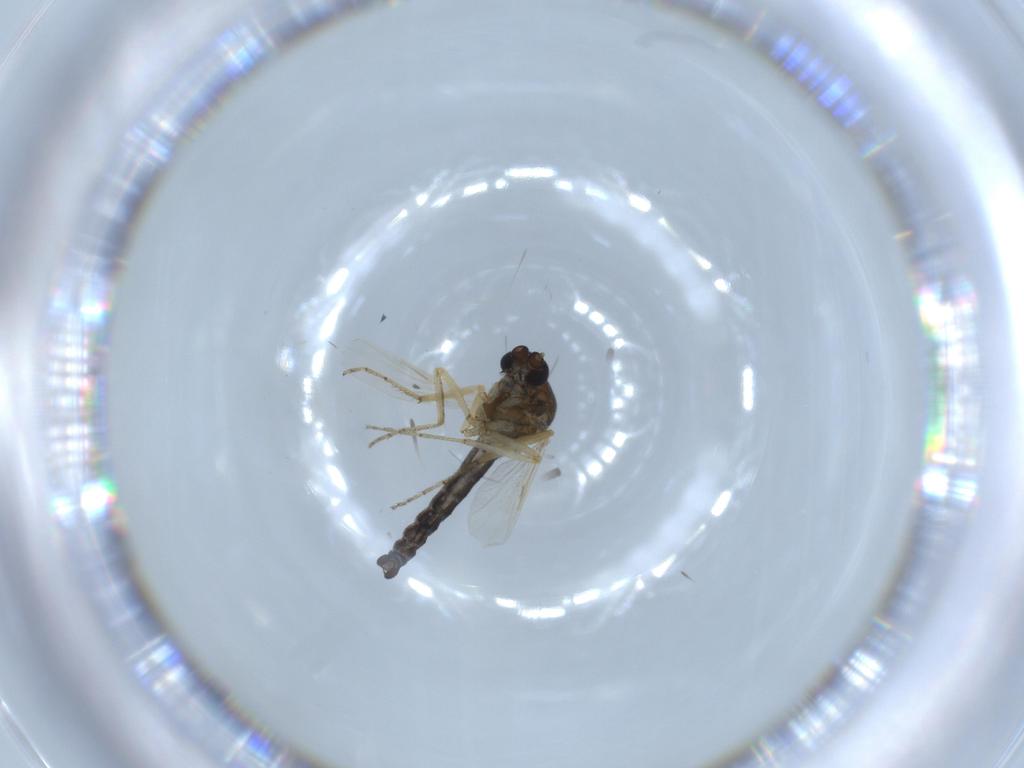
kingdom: Animalia
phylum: Arthropoda
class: Insecta
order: Diptera
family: Ceratopogonidae
